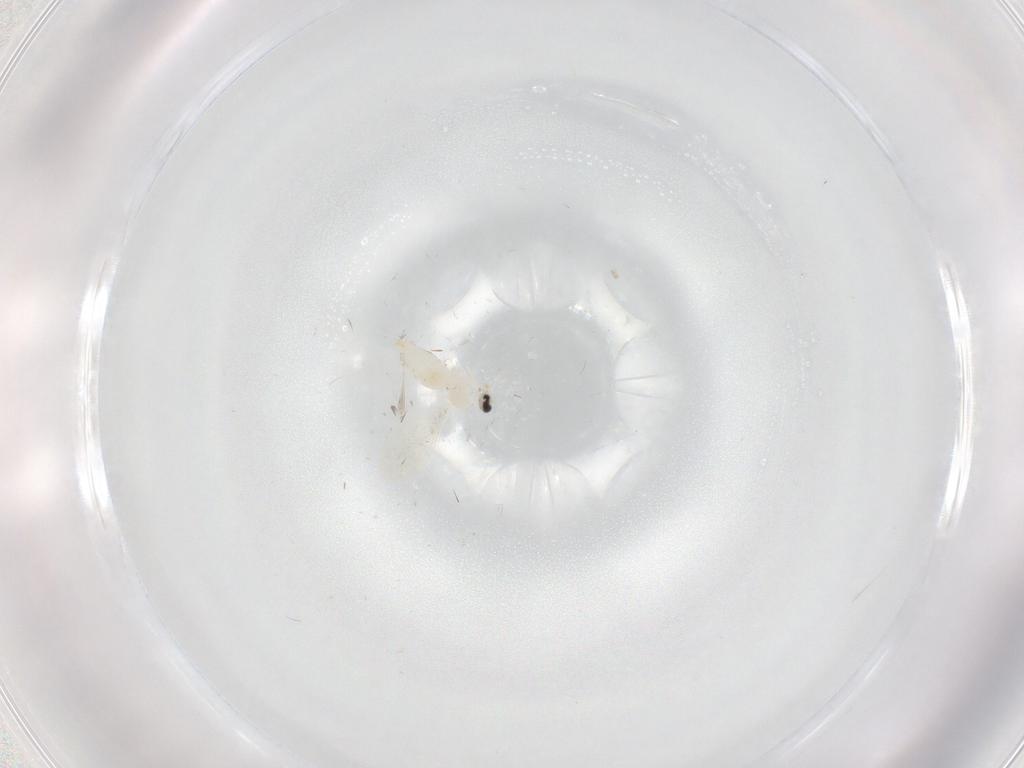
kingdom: Animalia
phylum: Arthropoda
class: Insecta
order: Diptera
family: Cecidomyiidae
